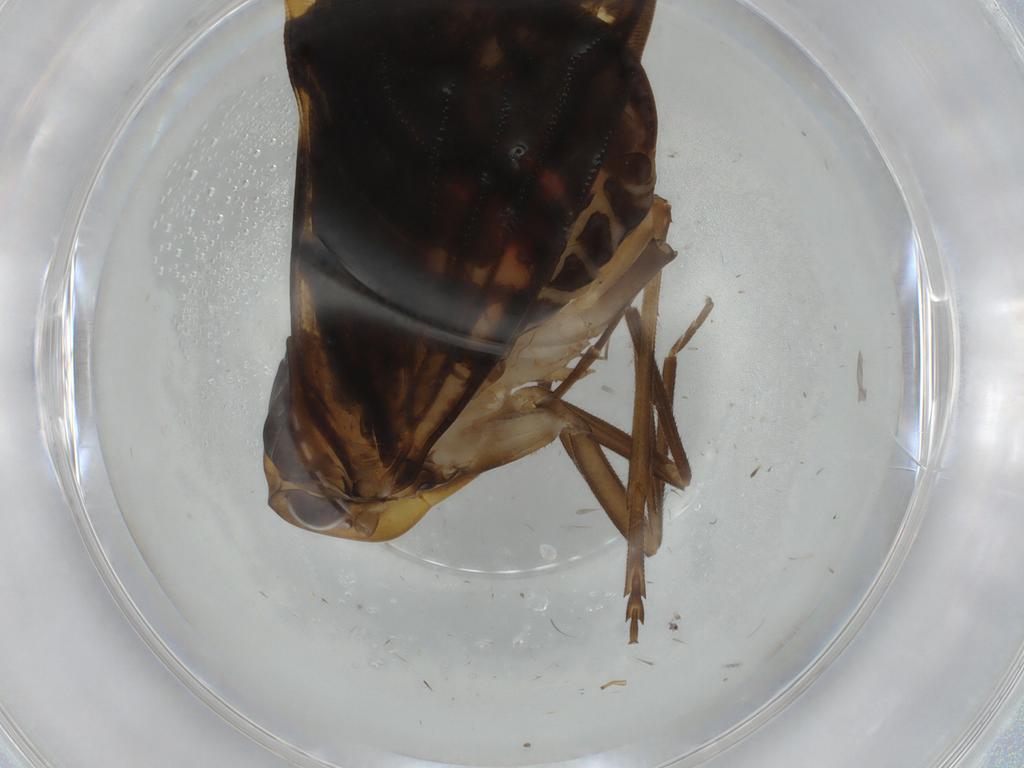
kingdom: Animalia
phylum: Arthropoda
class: Insecta
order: Hemiptera
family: Cixiidae
